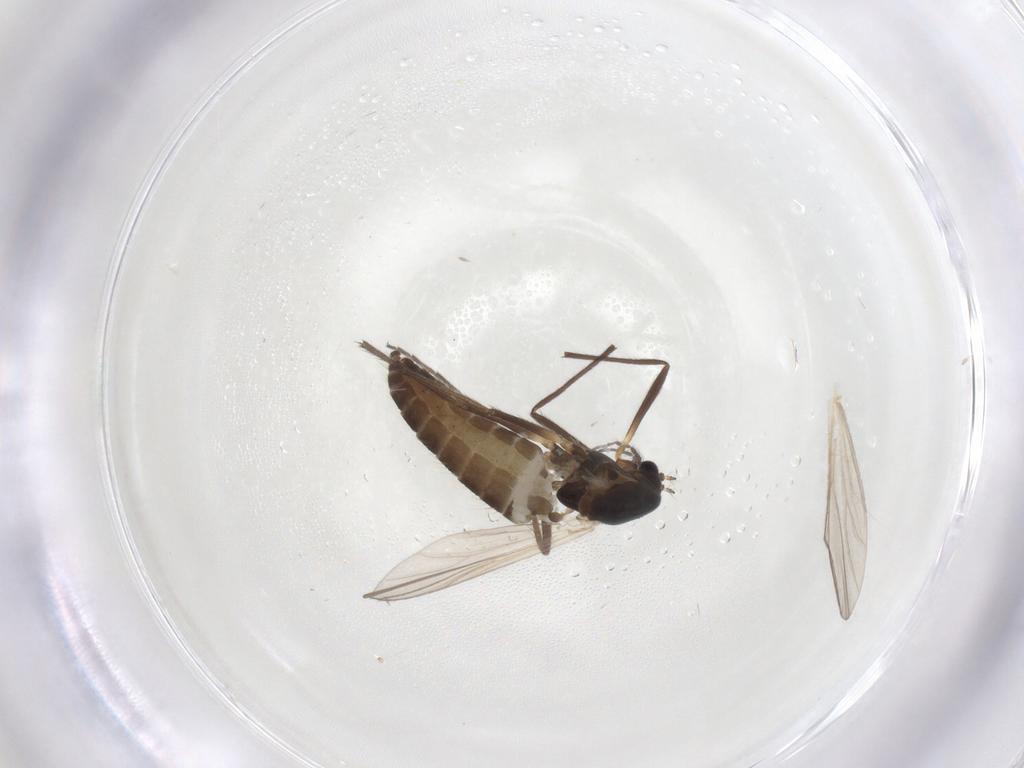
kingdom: Animalia
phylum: Arthropoda
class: Insecta
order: Diptera
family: Chironomidae
